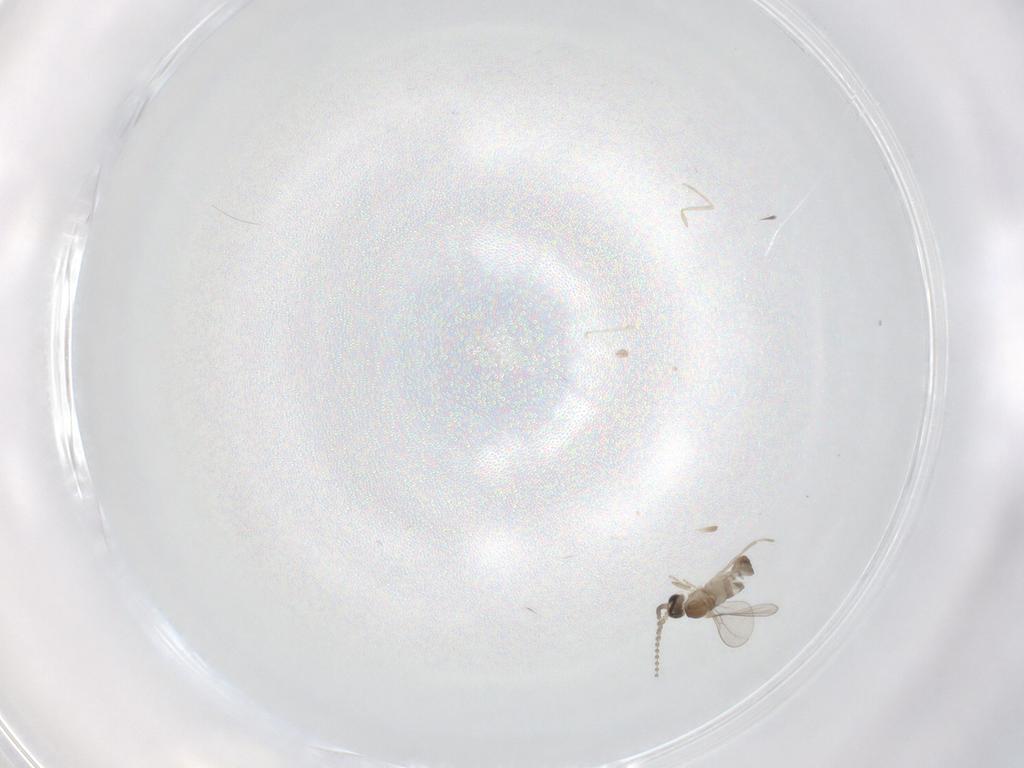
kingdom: Animalia
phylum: Arthropoda
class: Insecta
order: Diptera
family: Cecidomyiidae
